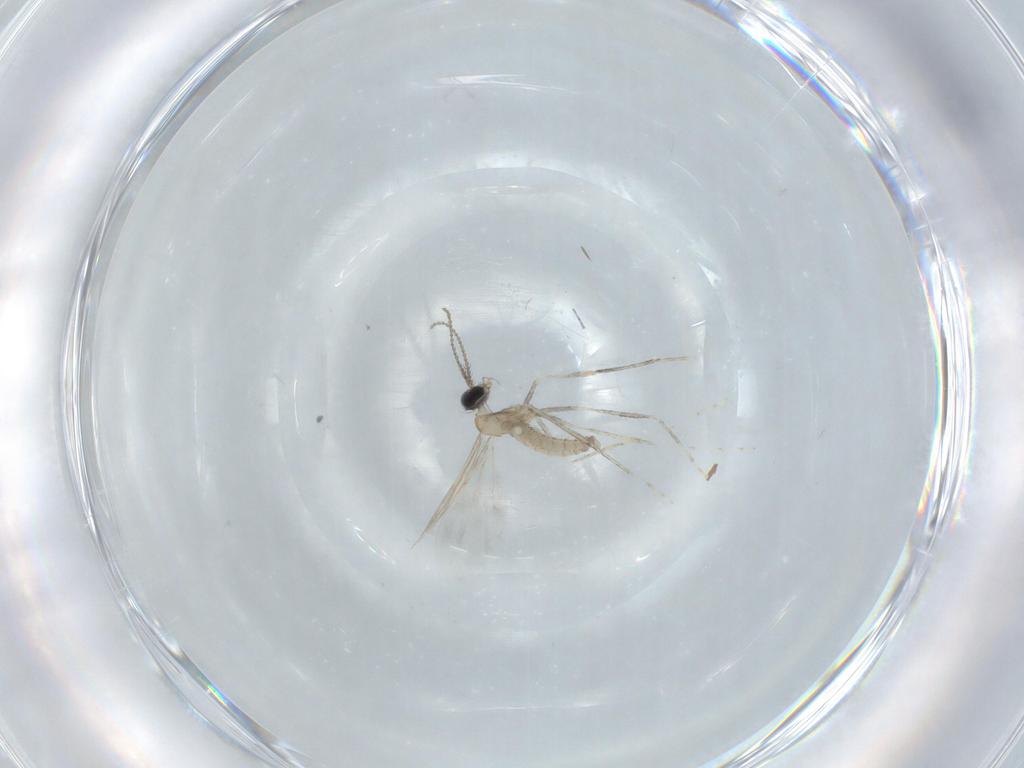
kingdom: Animalia
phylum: Arthropoda
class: Insecta
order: Diptera
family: Cecidomyiidae
